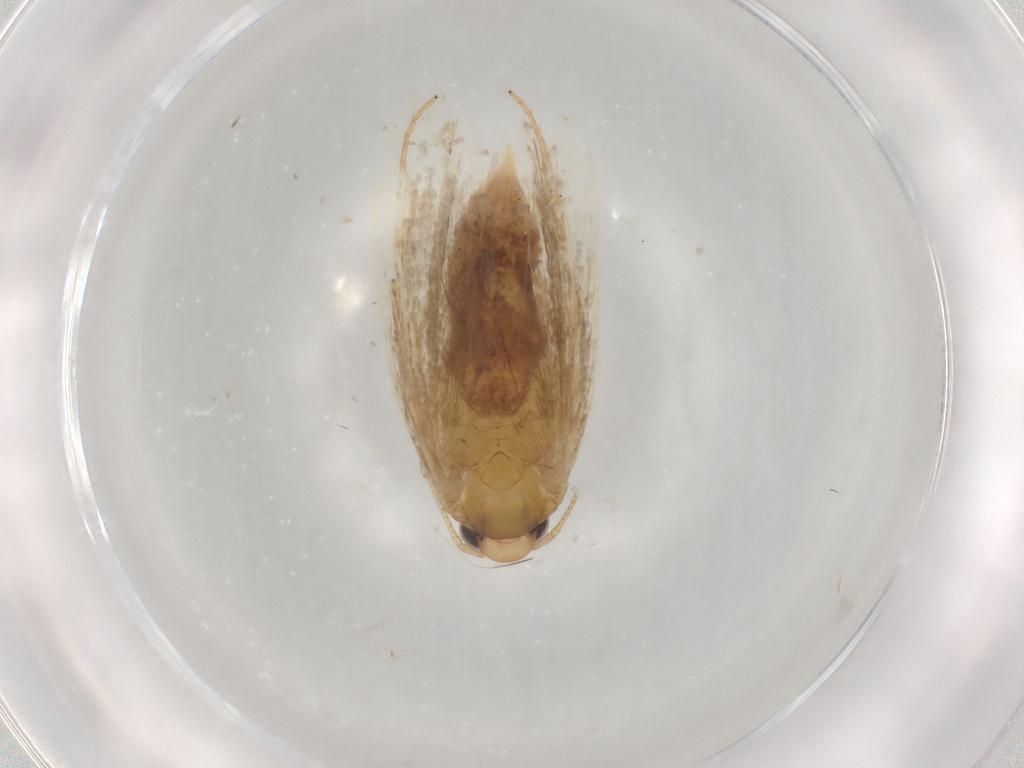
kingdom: Animalia
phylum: Arthropoda
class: Insecta
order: Lepidoptera
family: Depressariidae
